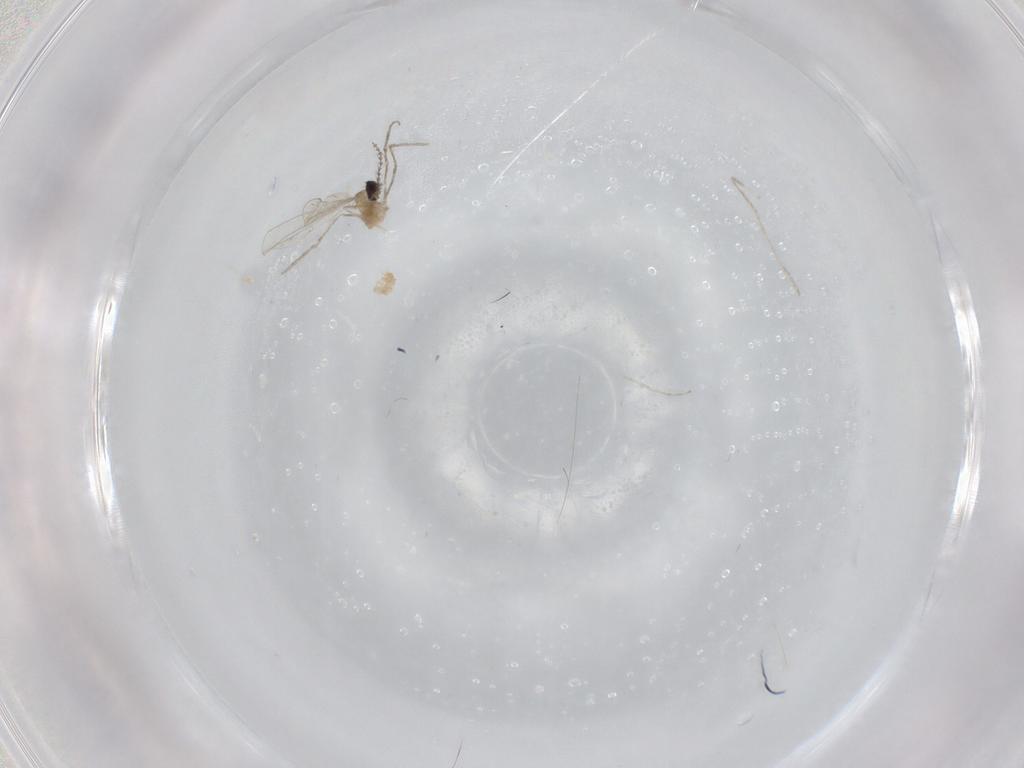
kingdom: Animalia
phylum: Arthropoda
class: Insecta
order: Diptera
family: Cecidomyiidae
